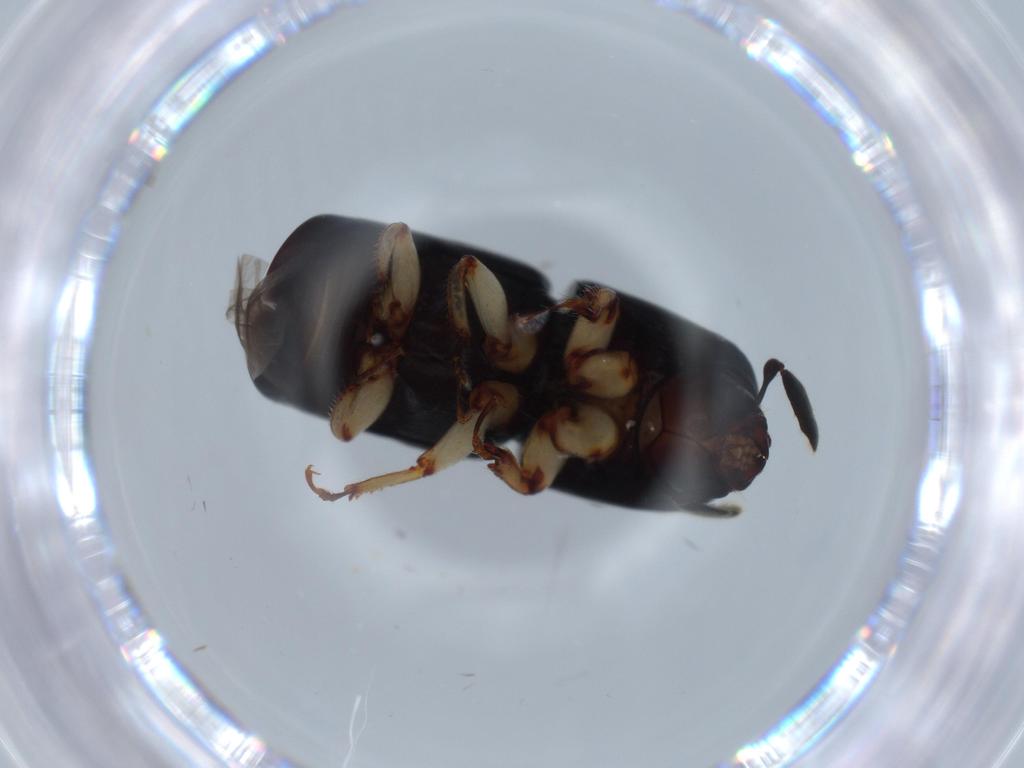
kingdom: Animalia
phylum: Arthropoda
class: Insecta
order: Coleoptera
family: Curculionidae
